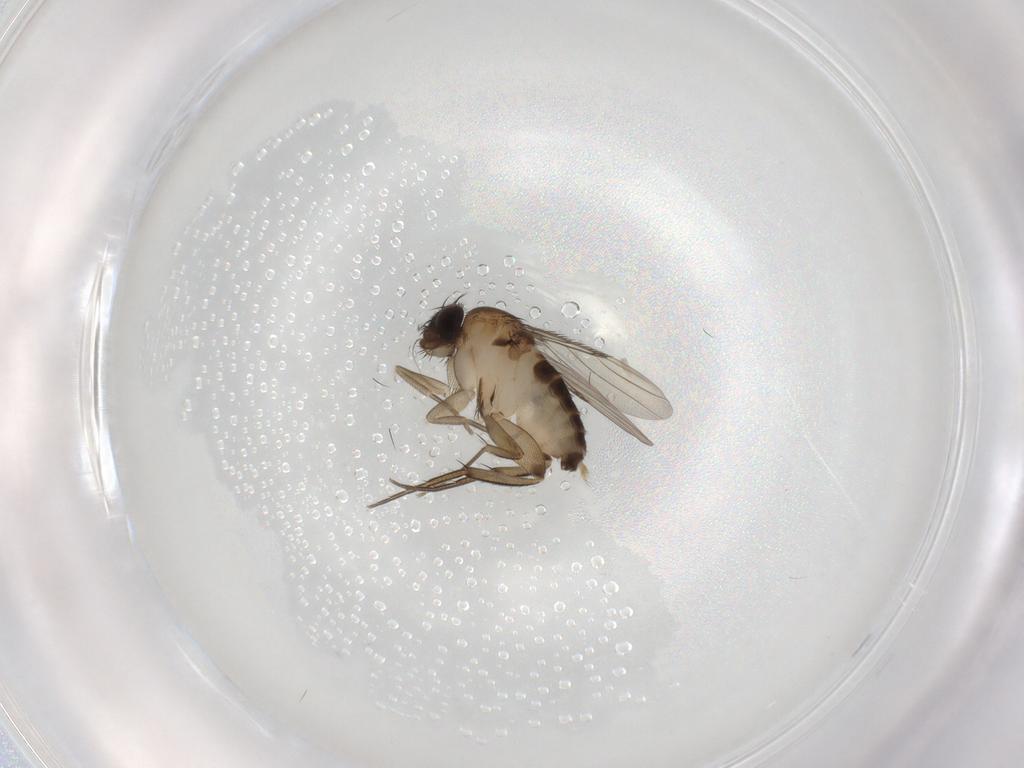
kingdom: Animalia
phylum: Arthropoda
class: Insecta
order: Diptera
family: Phoridae
